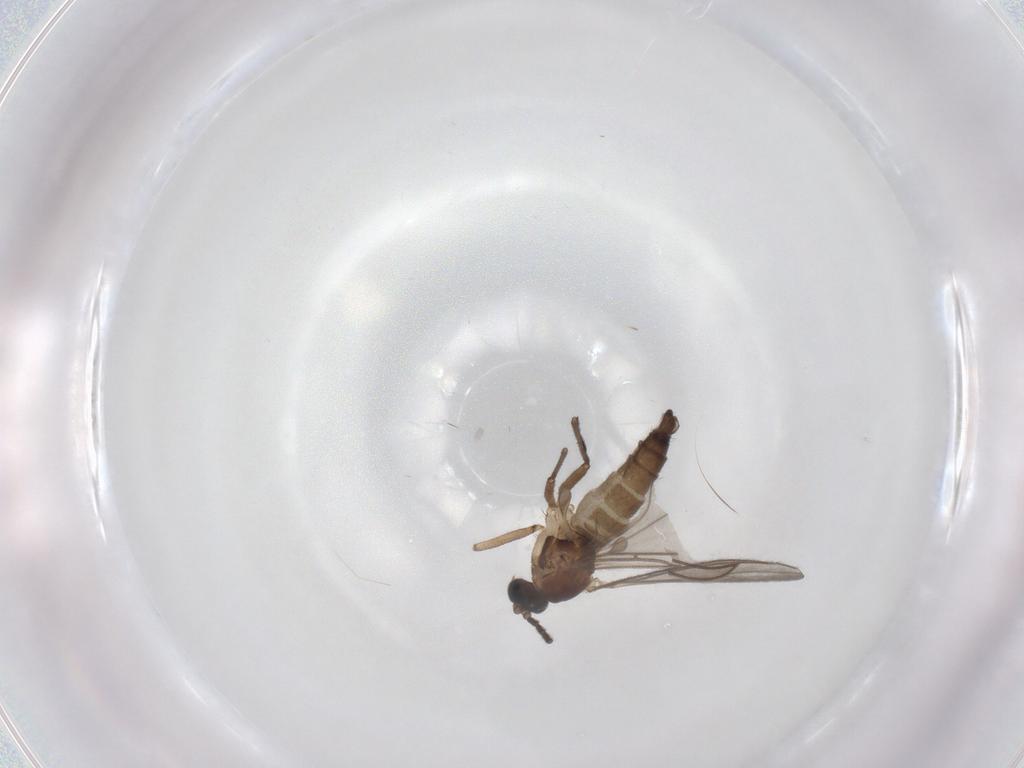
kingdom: Animalia
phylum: Arthropoda
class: Insecta
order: Diptera
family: Sciaridae
